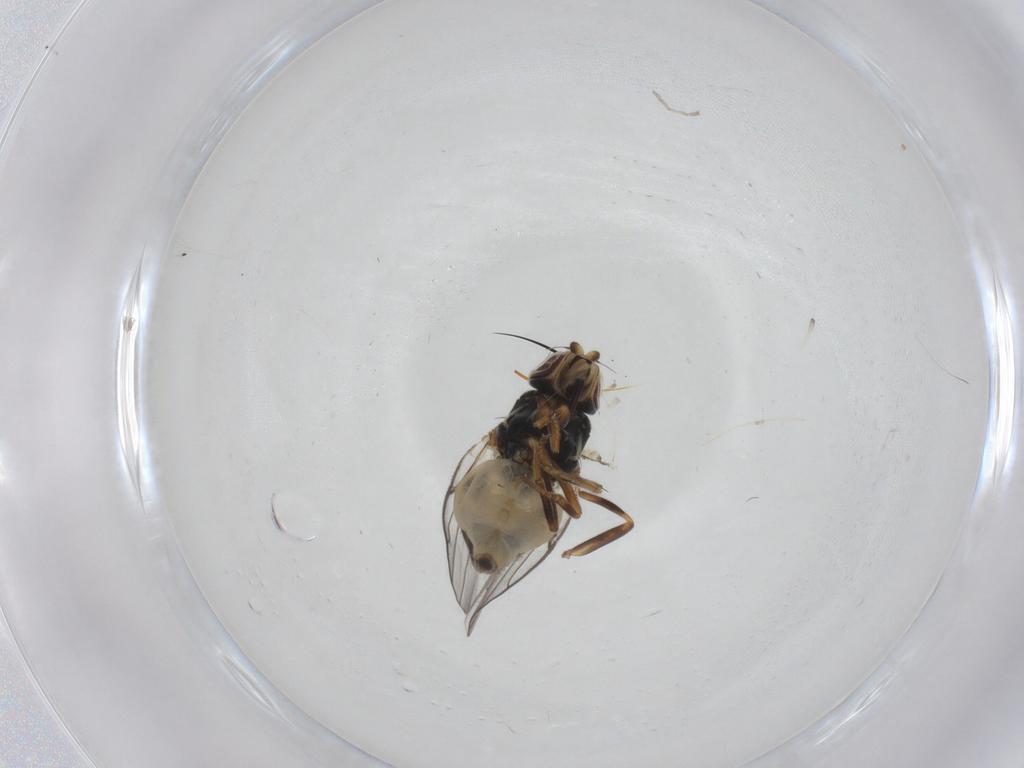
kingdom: Animalia
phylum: Arthropoda
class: Insecta
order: Diptera
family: Chloropidae
